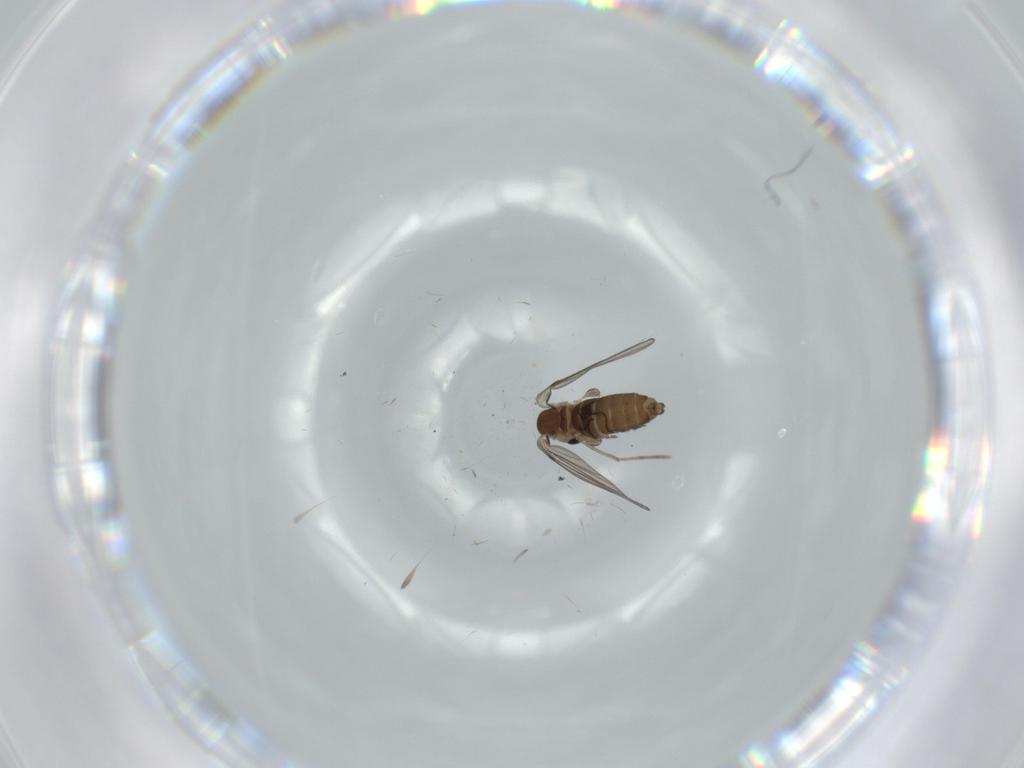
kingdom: Animalia
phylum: Arthropoda
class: Insecta
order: Diptera
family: Psychodidae
